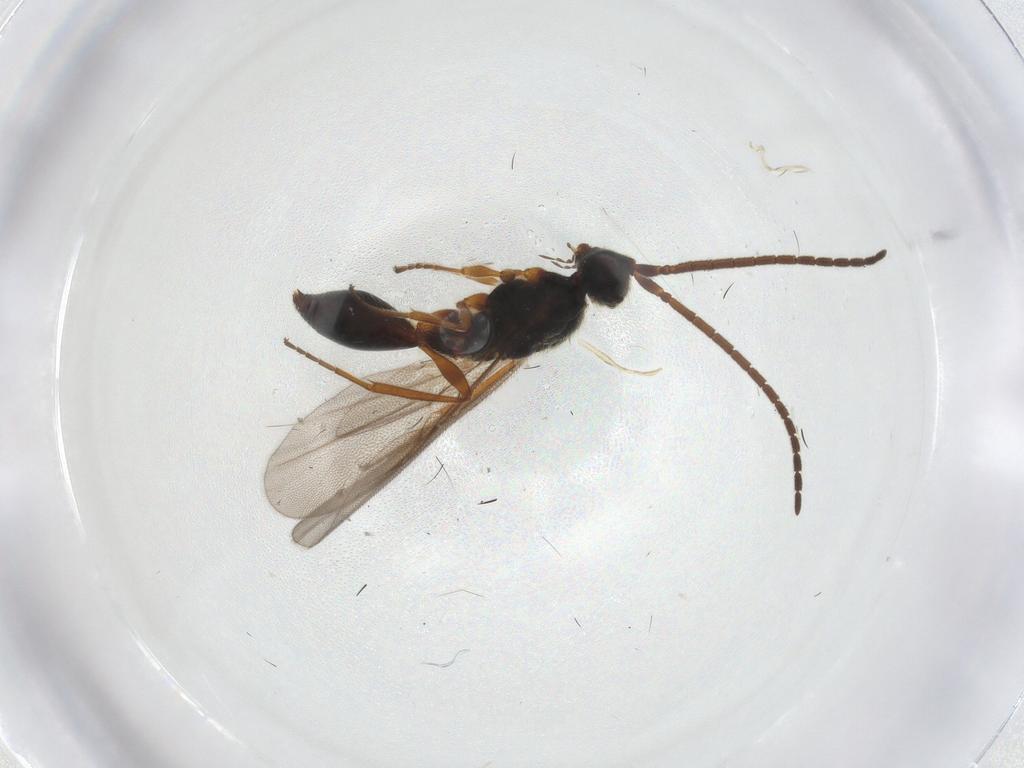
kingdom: Animalia
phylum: Arthropoda
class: Insecta
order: Hymenoptera
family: Diapriidae
